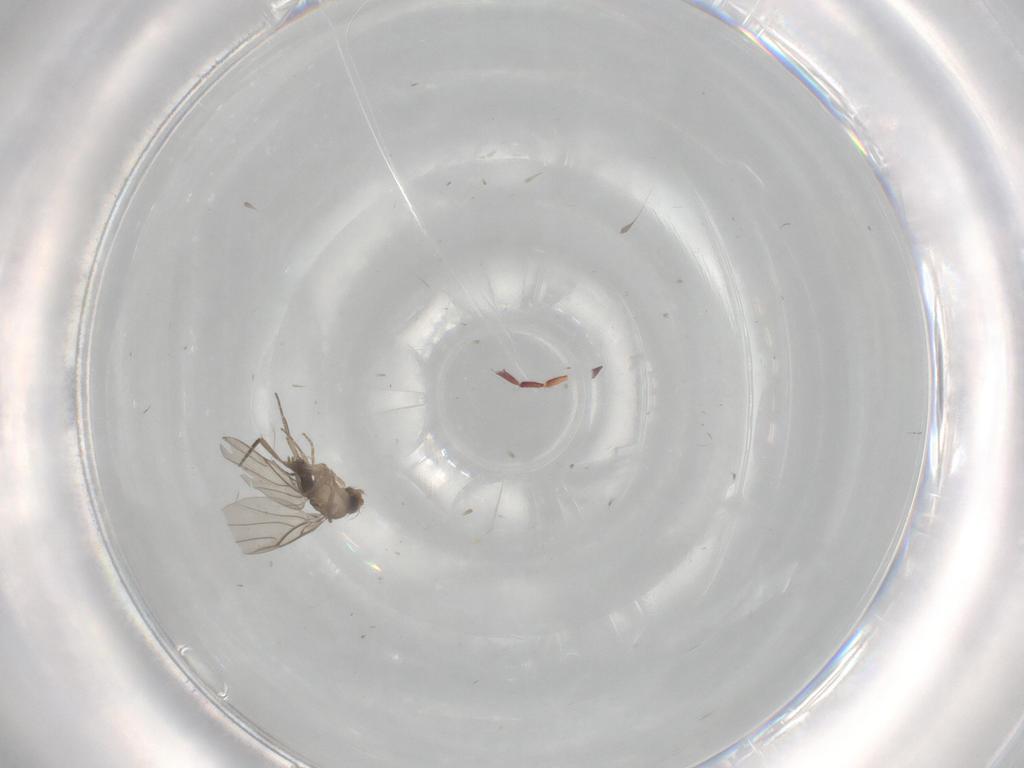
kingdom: Animalia
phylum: Arthropoda
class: Insecta
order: Diptera
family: Phoridae
